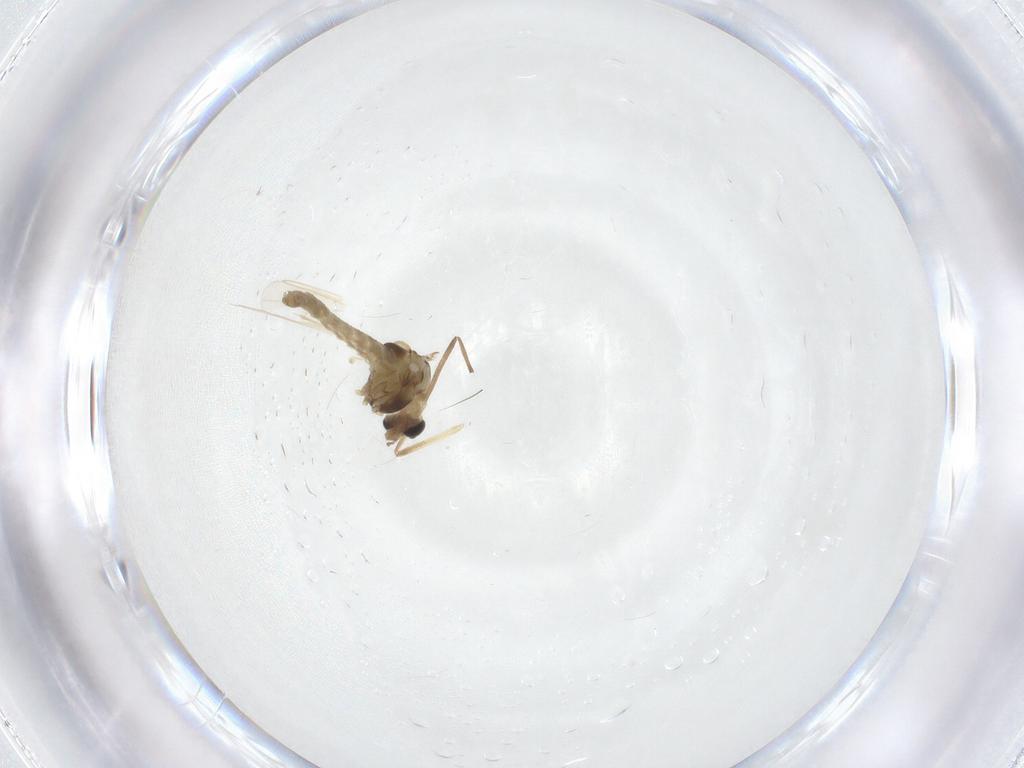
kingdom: Animalia
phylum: Arthropoda
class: Insecta
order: Diptera
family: Chironomidae
